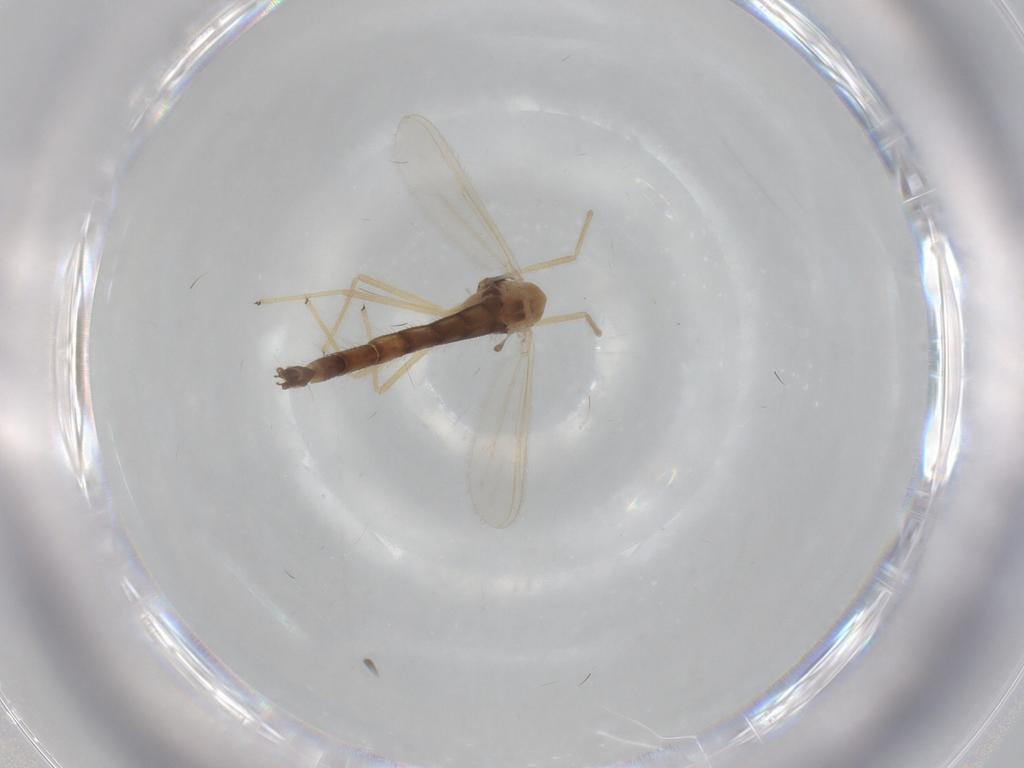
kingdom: Animalia
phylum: Arthropoda
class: Insecta
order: Diptera
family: Chironomidae
